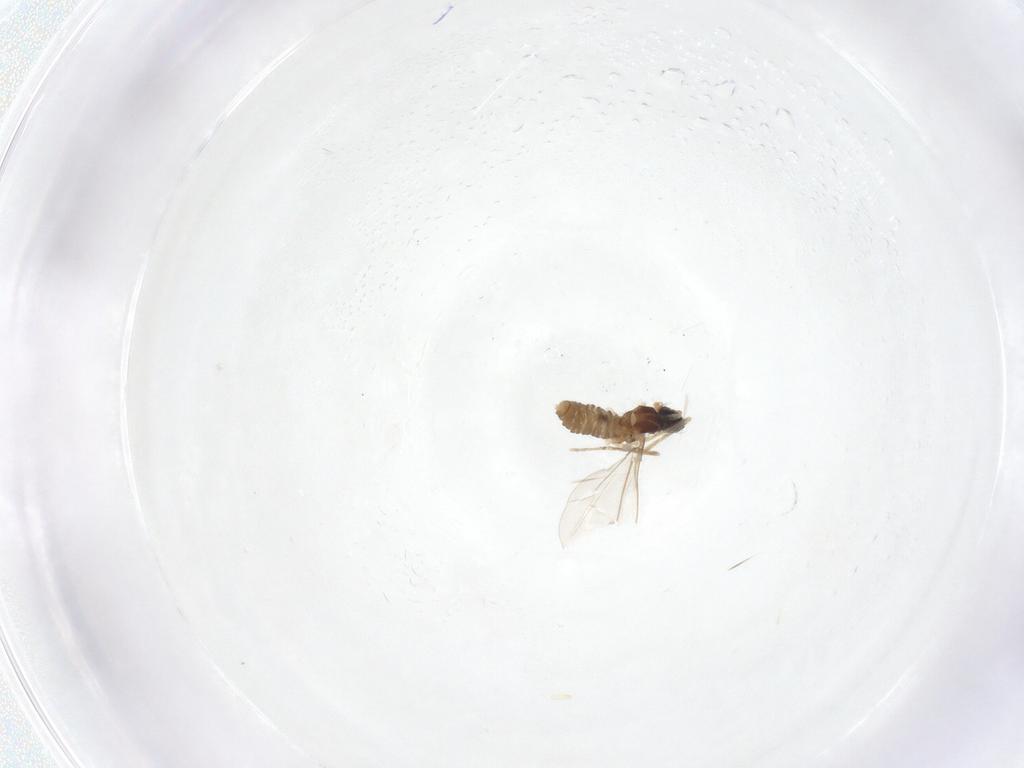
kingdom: Animalia
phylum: Arthropoda
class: Insecta
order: Diptera
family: Cecidomyiidae
